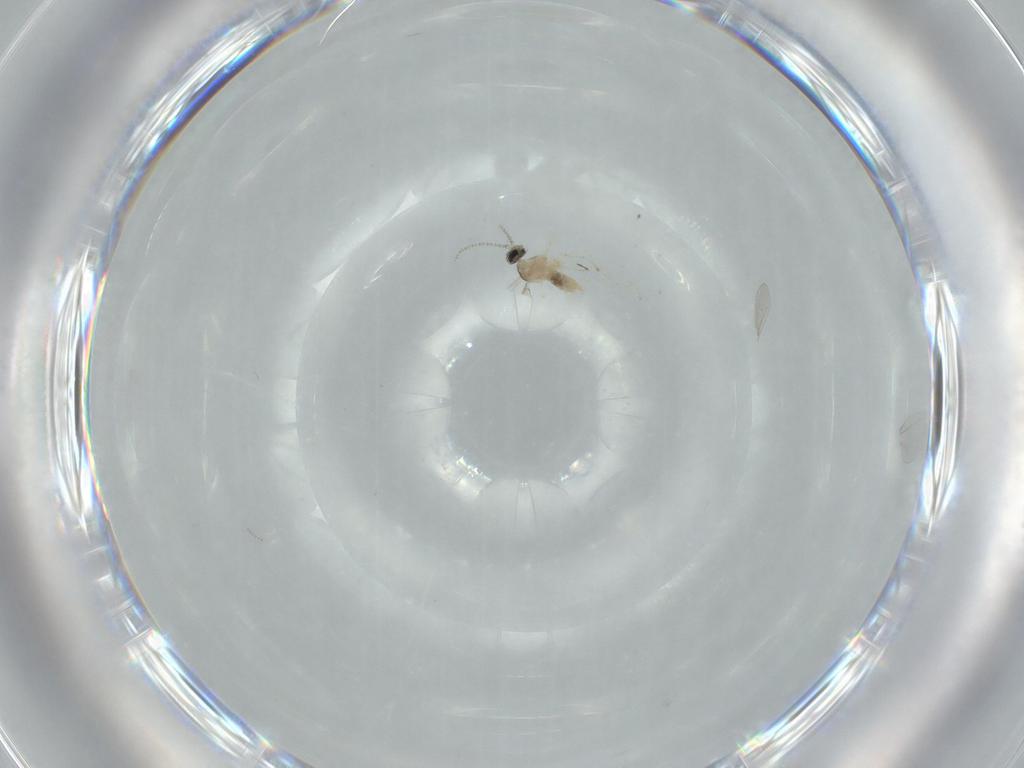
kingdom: Animalia
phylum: Arthropoda
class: Insecta
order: Diptera
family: Cecidomyiidae
